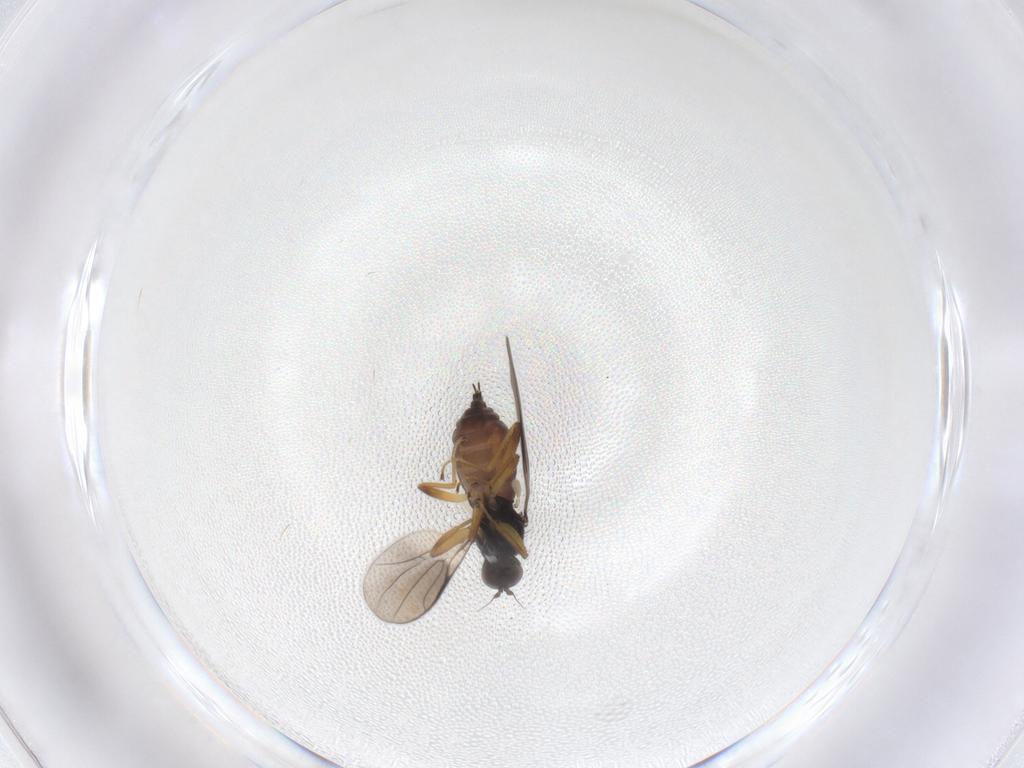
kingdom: Animalia
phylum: Arthropoda
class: Insecta
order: Diptera
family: Hybotidae
